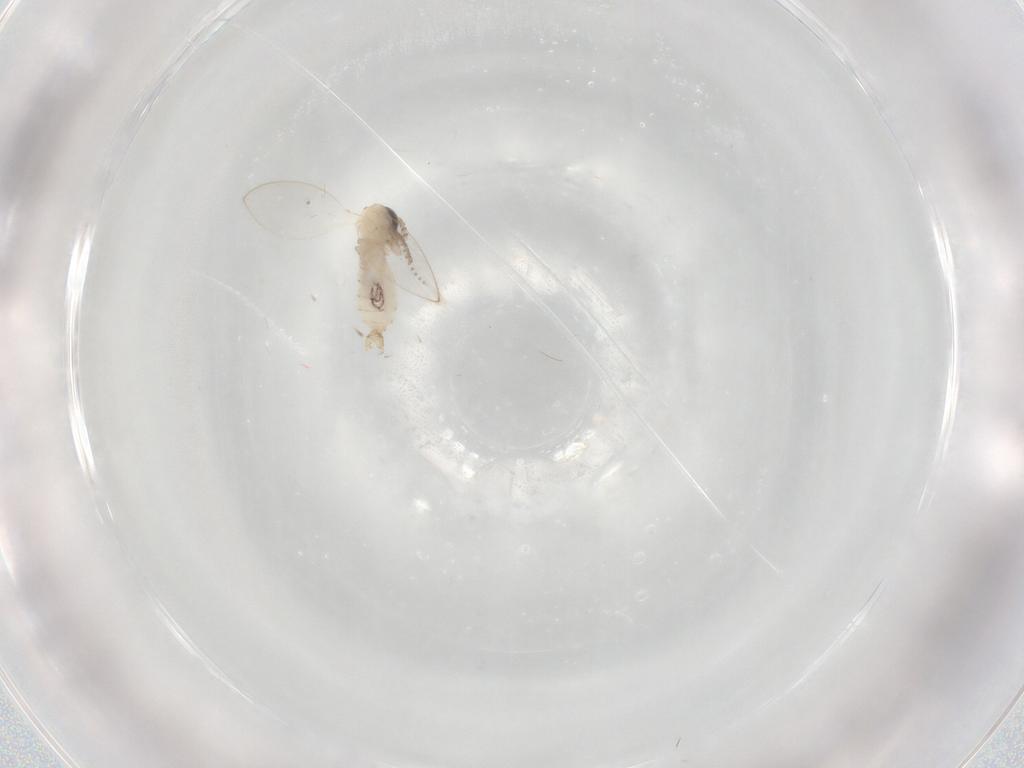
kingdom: Animalia
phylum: Arthropoda
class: Insecta
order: Diptera
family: Psychodidae
